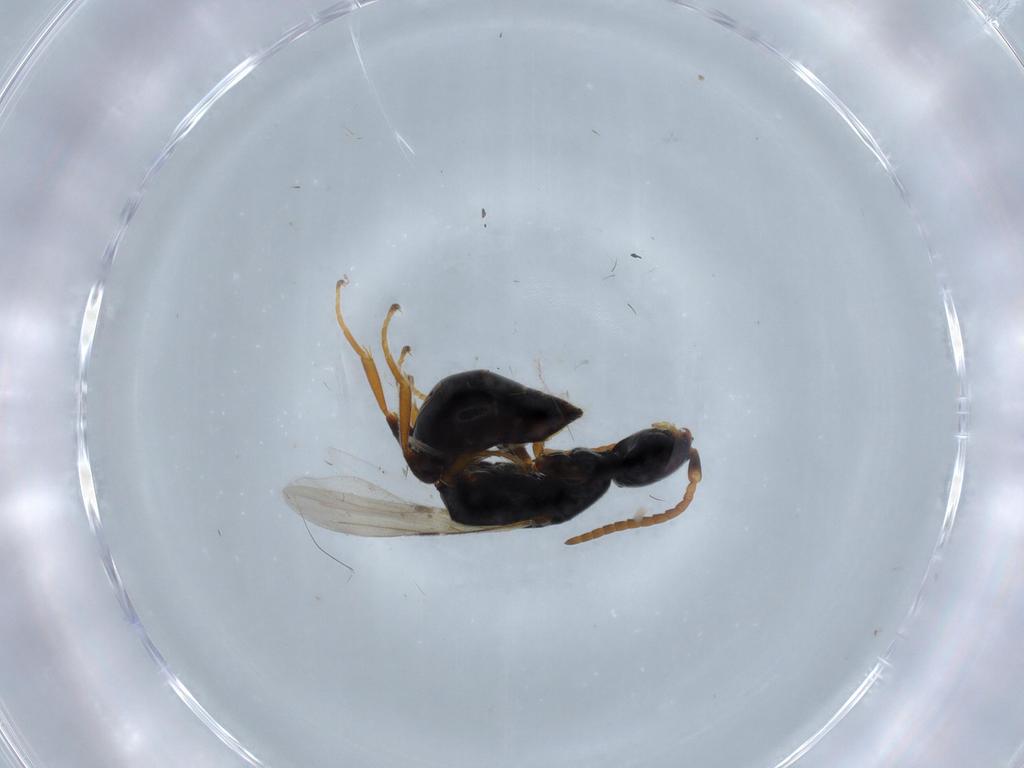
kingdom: Animalia
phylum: Arthropoda
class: Insecta
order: Hymenoptera
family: Bethylidae
